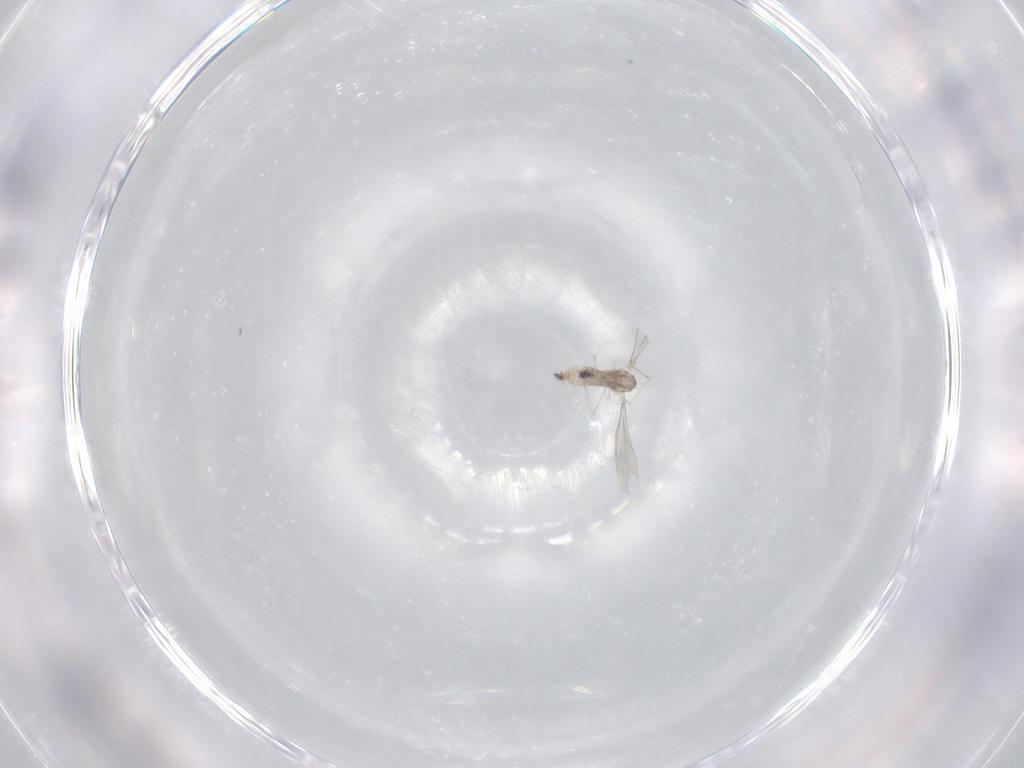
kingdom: Animalia
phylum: Arthropoda
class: Insecta
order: Diptera
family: Cecidomyiidae
